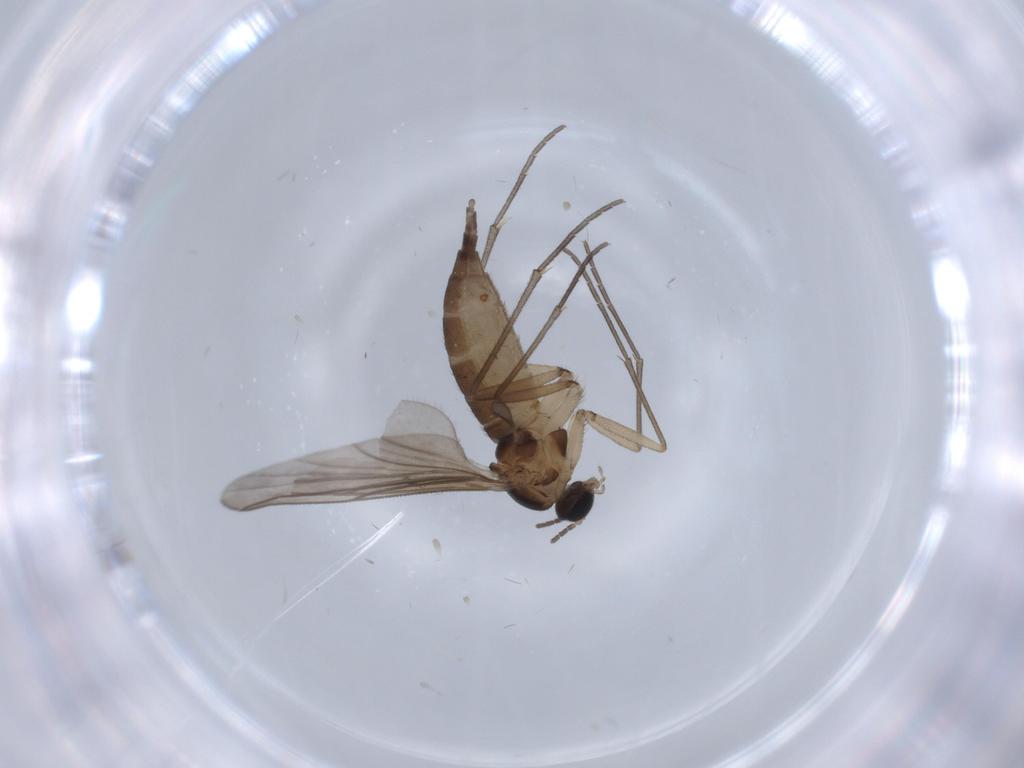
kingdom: Animalia
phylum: Arthropoda
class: Insecta
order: Diptera
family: Sciaridae
